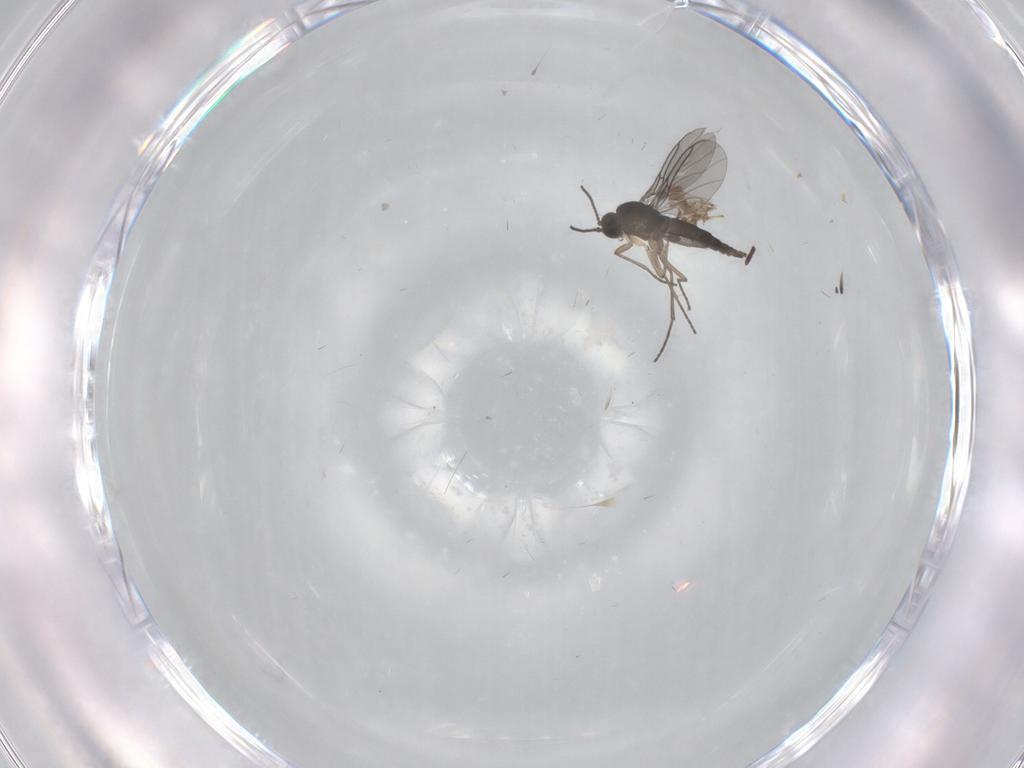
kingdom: Animalia
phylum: Arthropoda
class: Insecta
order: Diptera
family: Sciaridae
